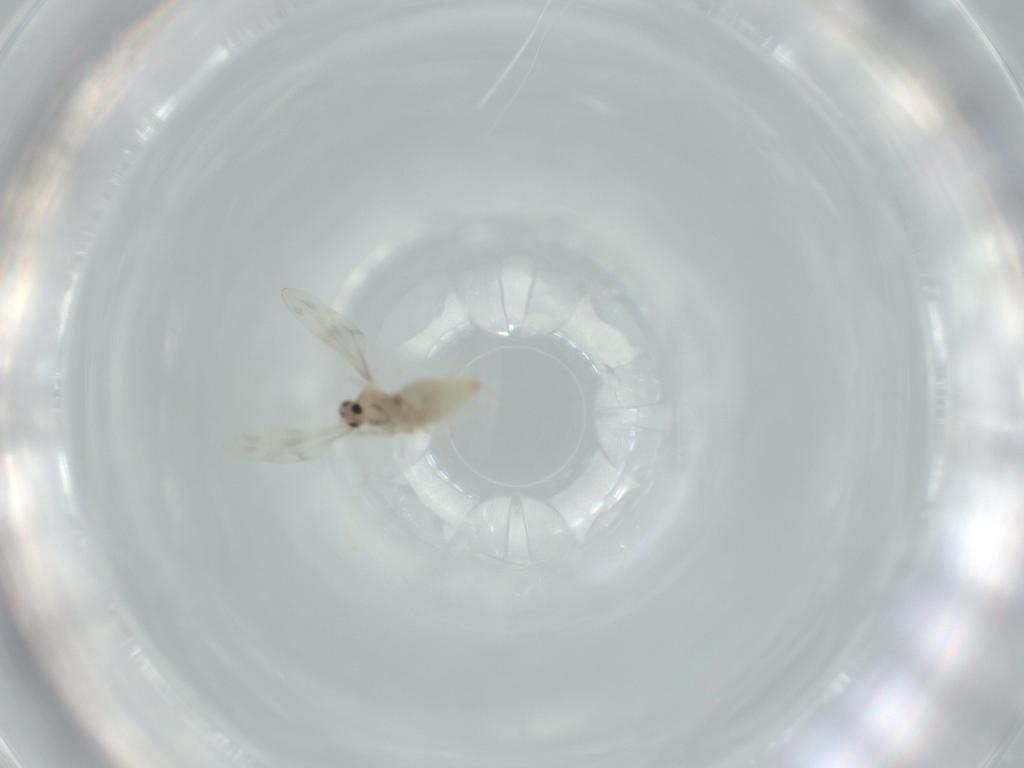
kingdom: Animalia
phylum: Arthropoda
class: Insecta
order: Diptera
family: Cecidomyiidae
